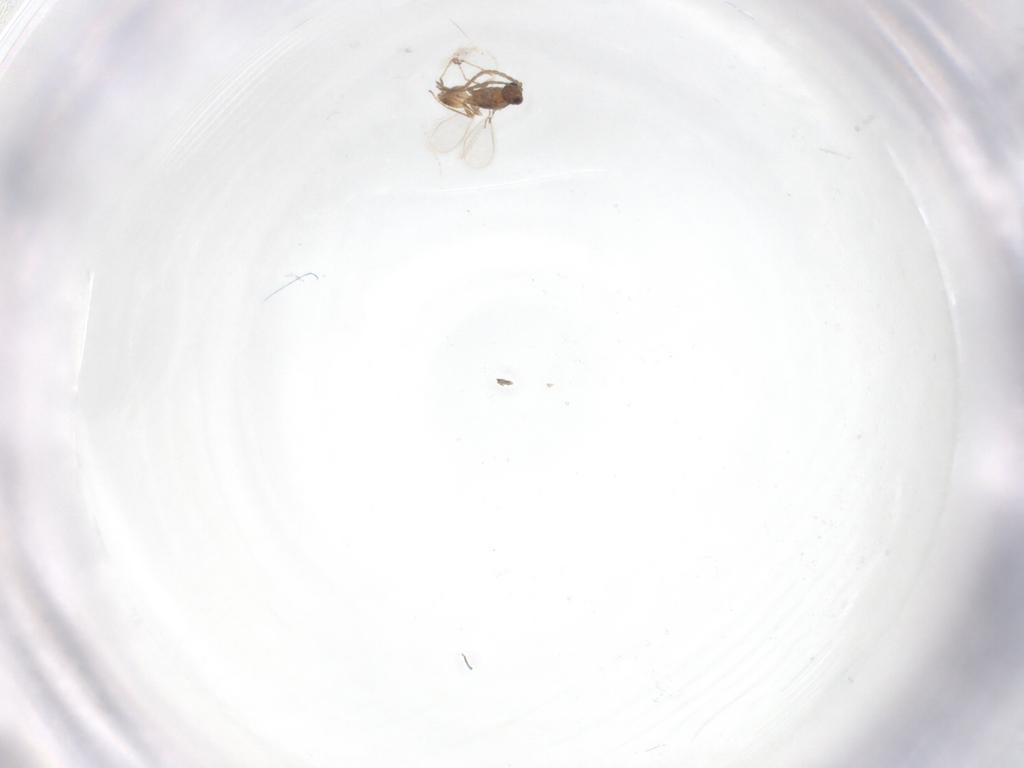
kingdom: Animalia
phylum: Arthropoda
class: Insecta
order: Hymenoptera
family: Mymaridae
